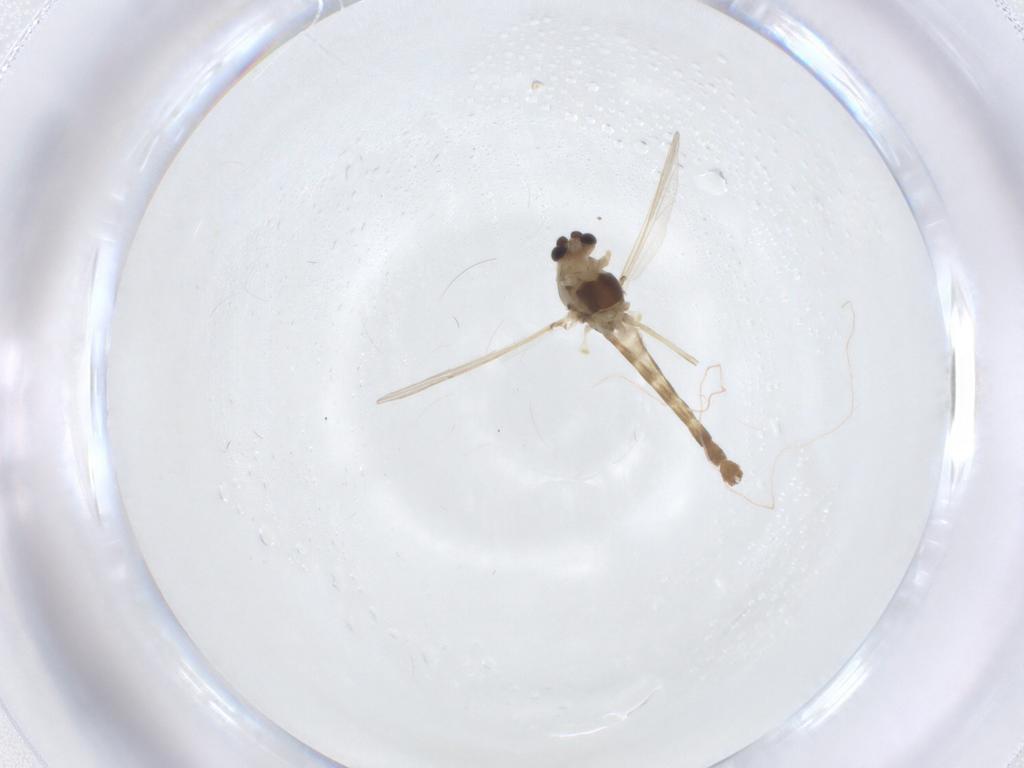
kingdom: Animalia
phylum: Arthropoda
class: Insecta
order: Diptera
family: Chironomidae
